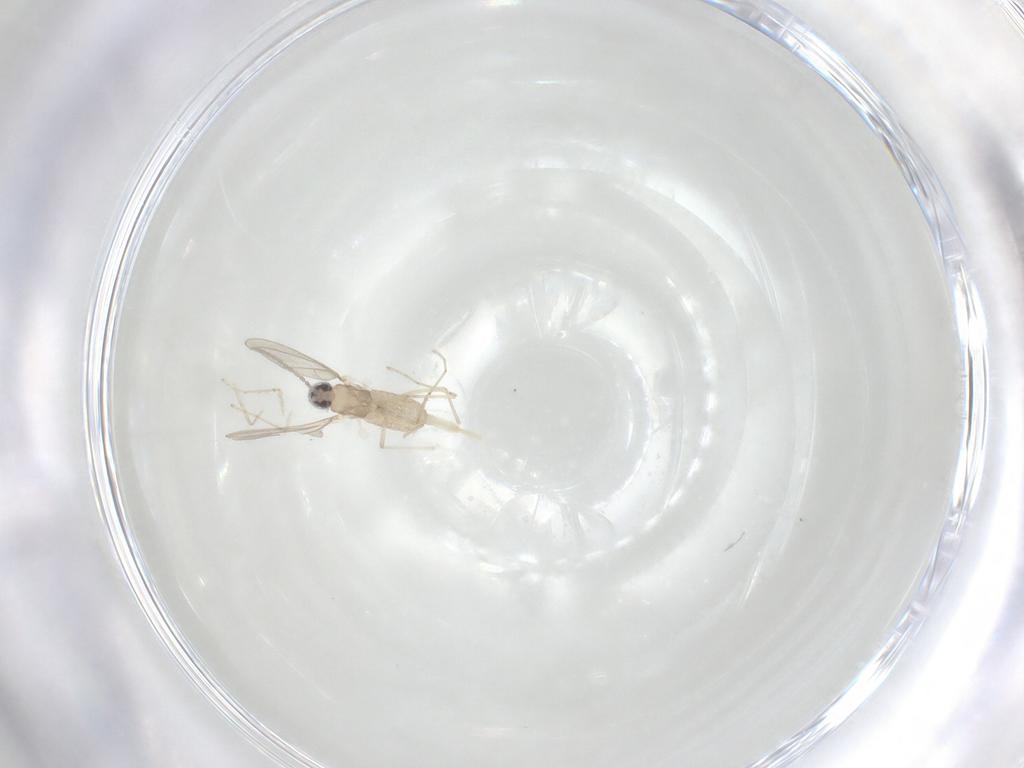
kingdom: Animalia
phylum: Arthropoda
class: Insecta
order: Diptera
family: Cecidomyiidae
